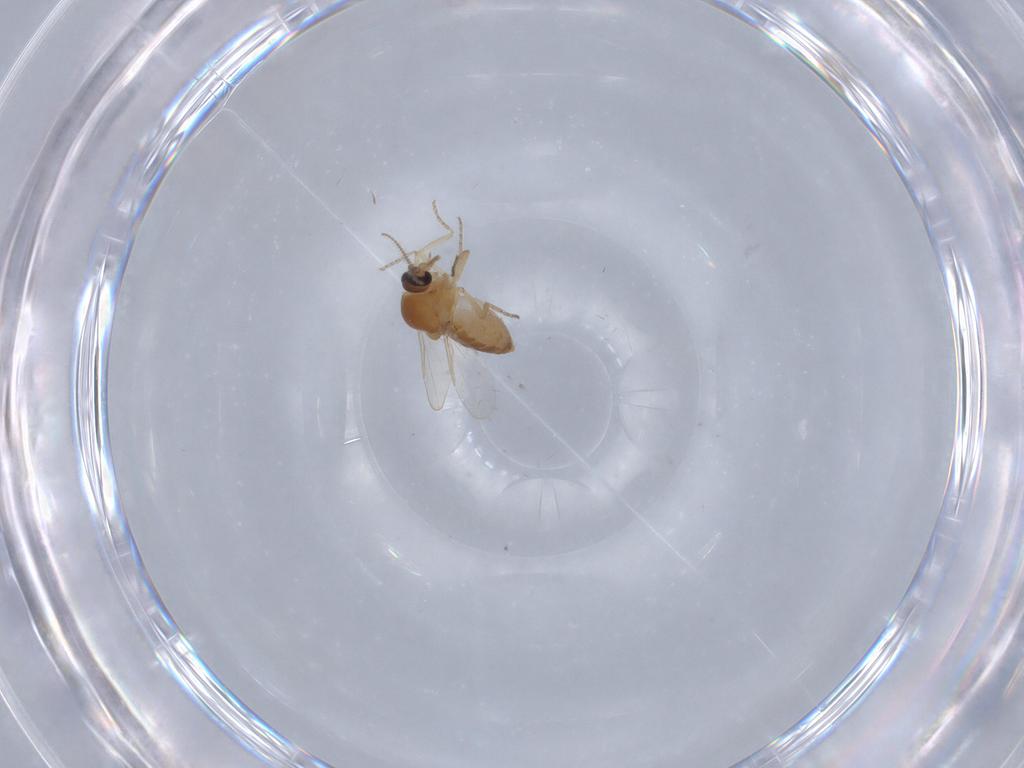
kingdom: Animalia
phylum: Arthropoda
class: Insecta
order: Diptera
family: Ceratopogonidae
